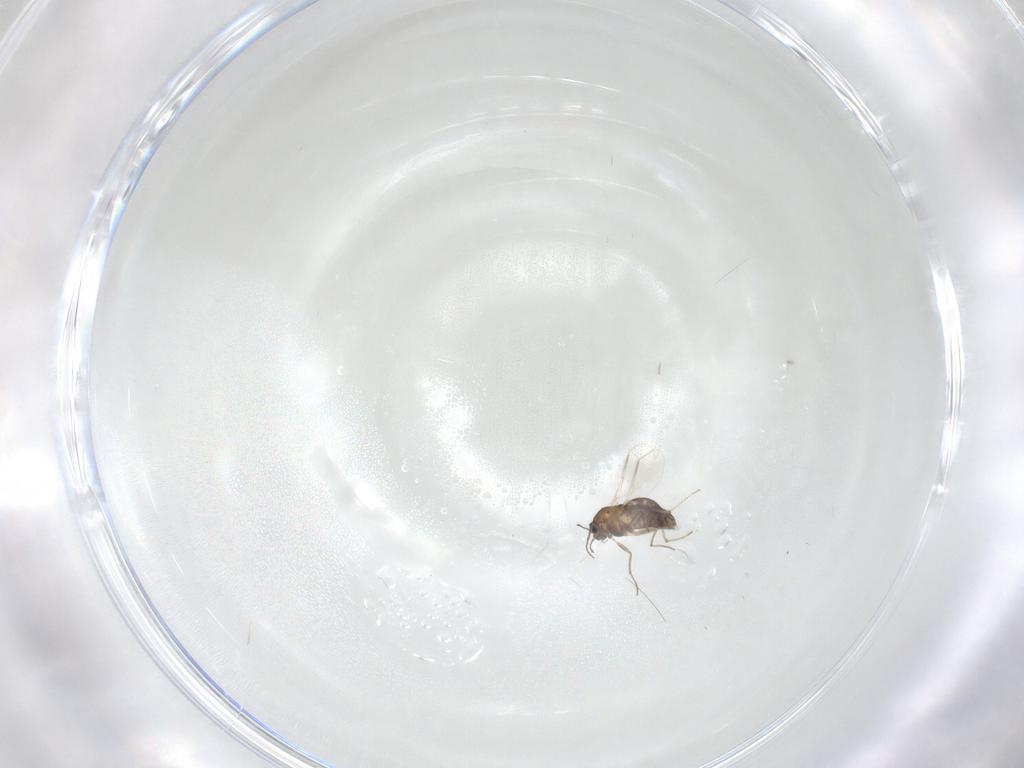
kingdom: Animalia
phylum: Arthropoda
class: Insecta
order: Diptera
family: Chironomidae
